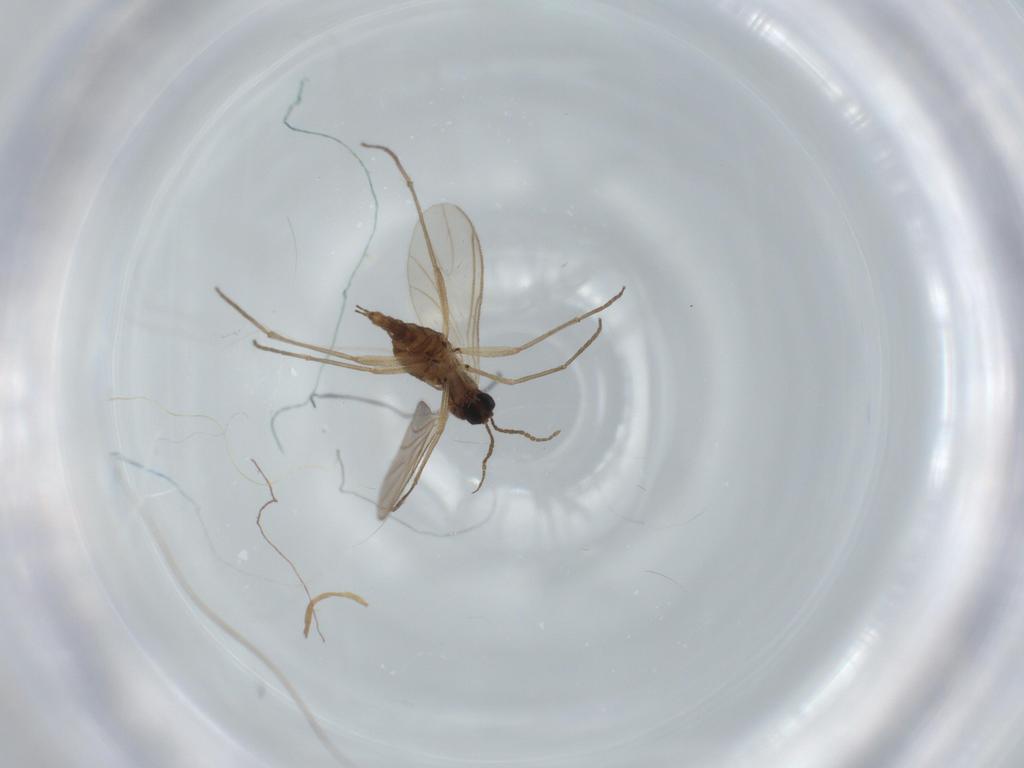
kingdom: Animalia
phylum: Arthropoda
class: Insecta
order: Diptera
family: Sciaridae
